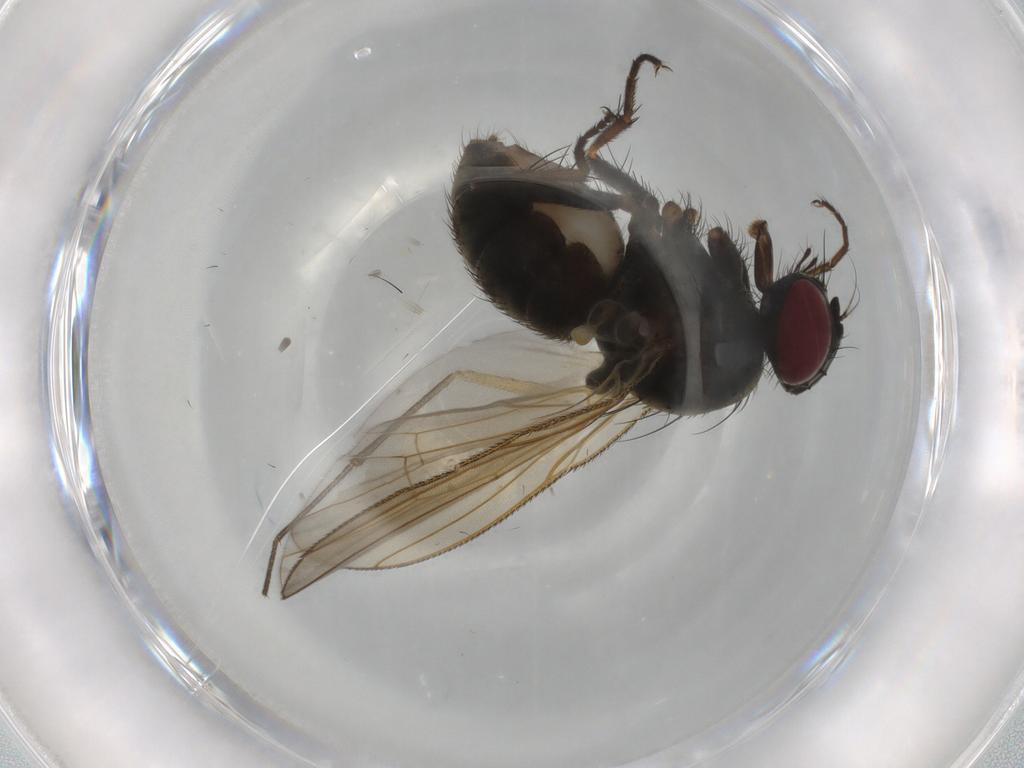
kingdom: Animalia
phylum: Arthropoda
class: Insecta
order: Diptera
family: Mycetophilidae
